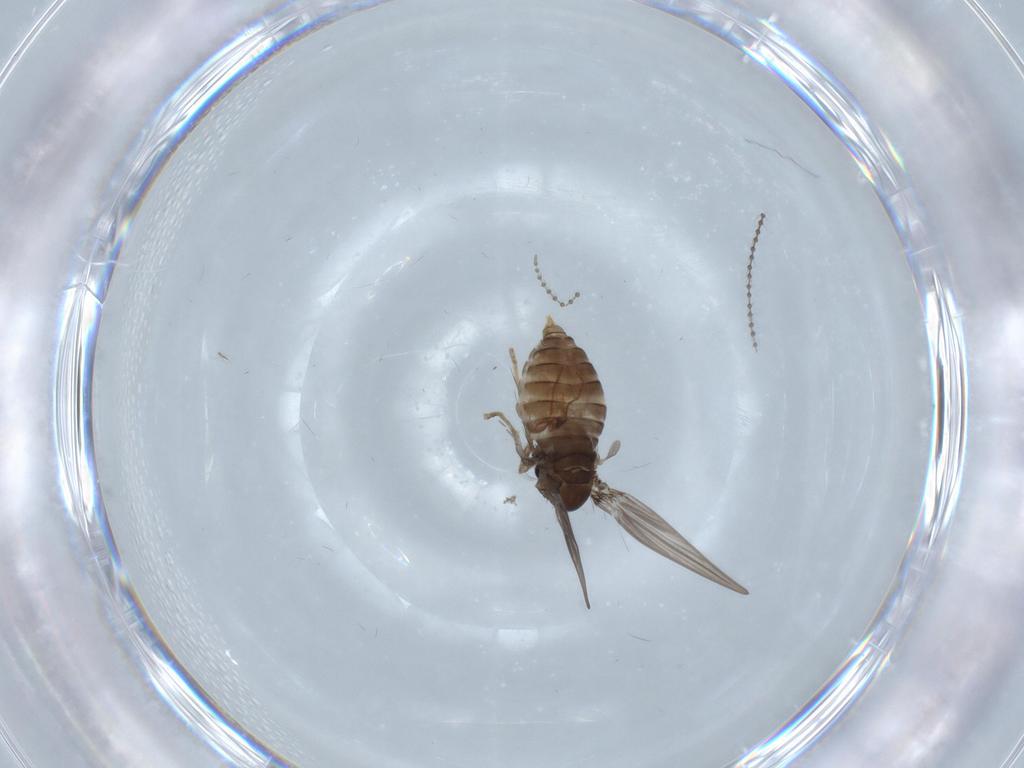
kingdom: Animalia
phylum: Arthropoda
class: Insecta
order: Diptera
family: Psychodidae
